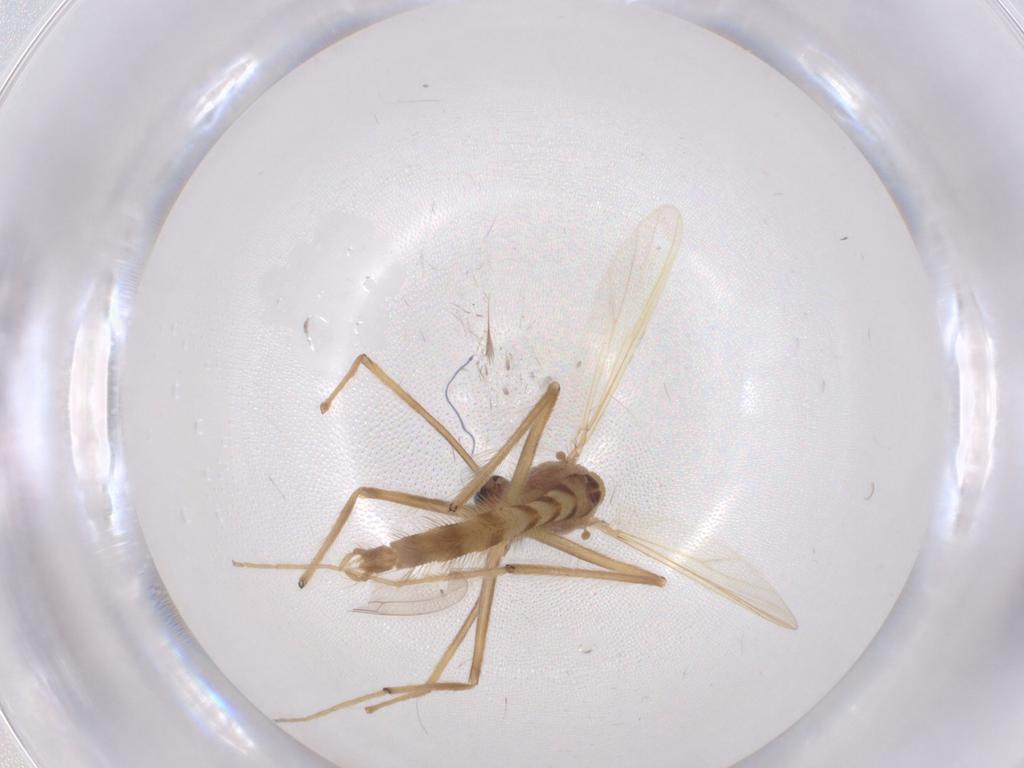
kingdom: Animalia
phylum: Arthropoda
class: Insecta
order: Diptera
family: Chironomidae
